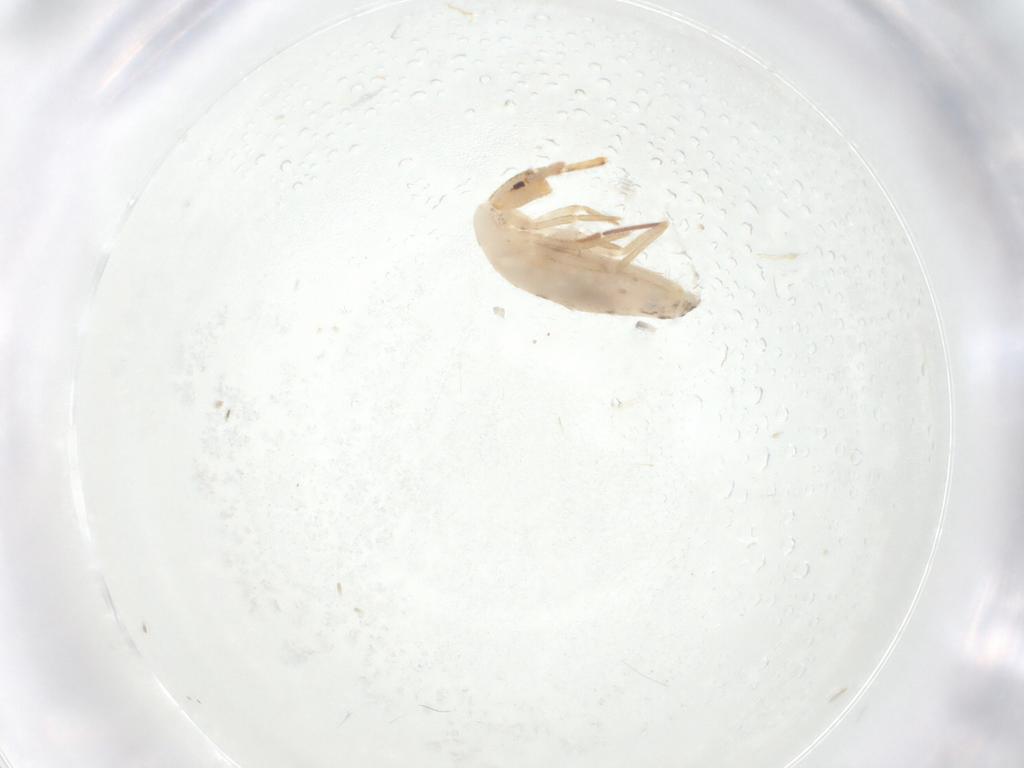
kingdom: Animalia
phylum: Arthropoda
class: Collembola
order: Entomobryomorpha
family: Entomobryidae
